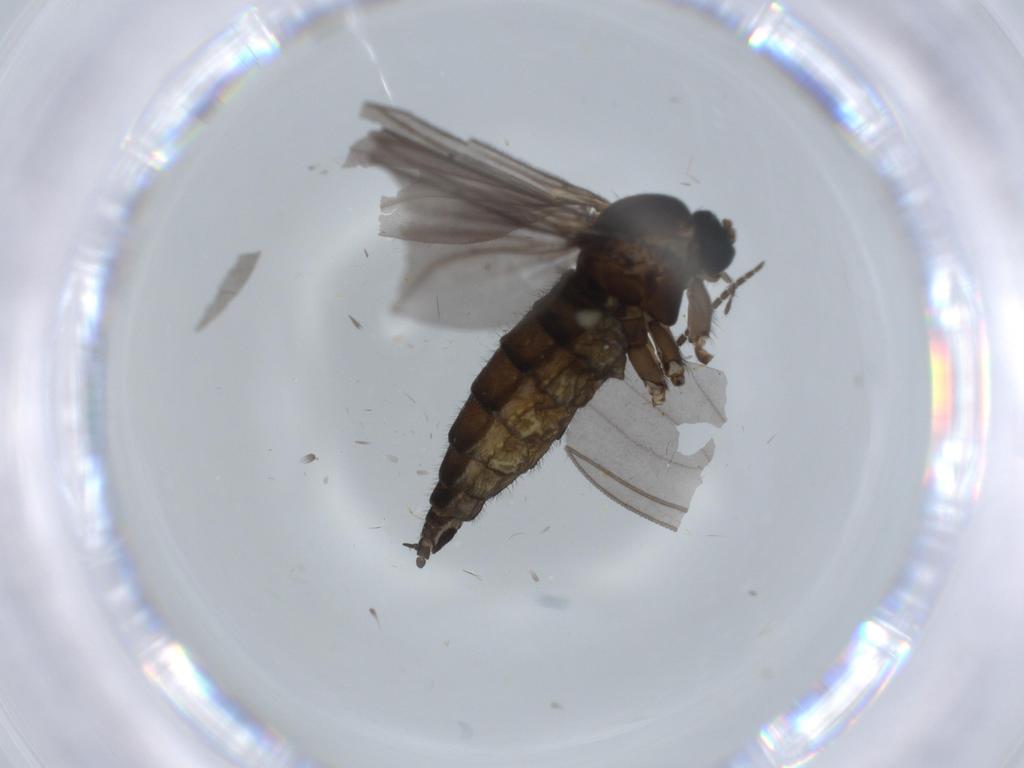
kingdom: Animalia
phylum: Arthropoda
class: Insecta
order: Diptera
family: Sciaridae
